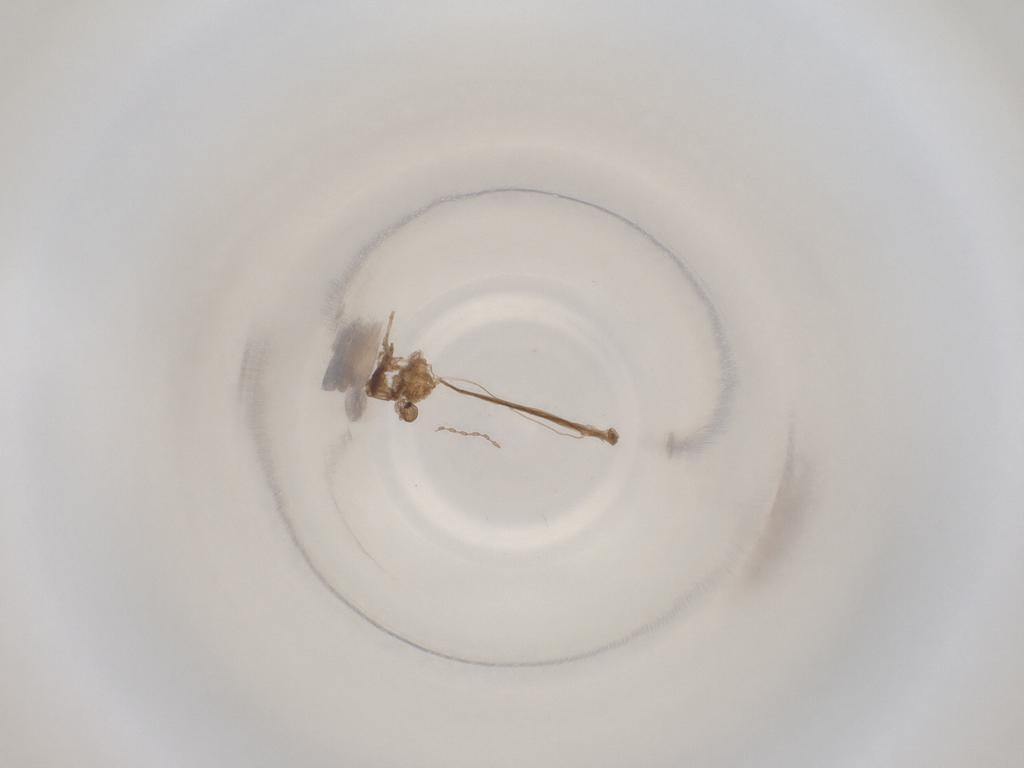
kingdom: Animalia
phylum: Arthropoda
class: Insecta
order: Diptera
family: Cecidomyiidae
